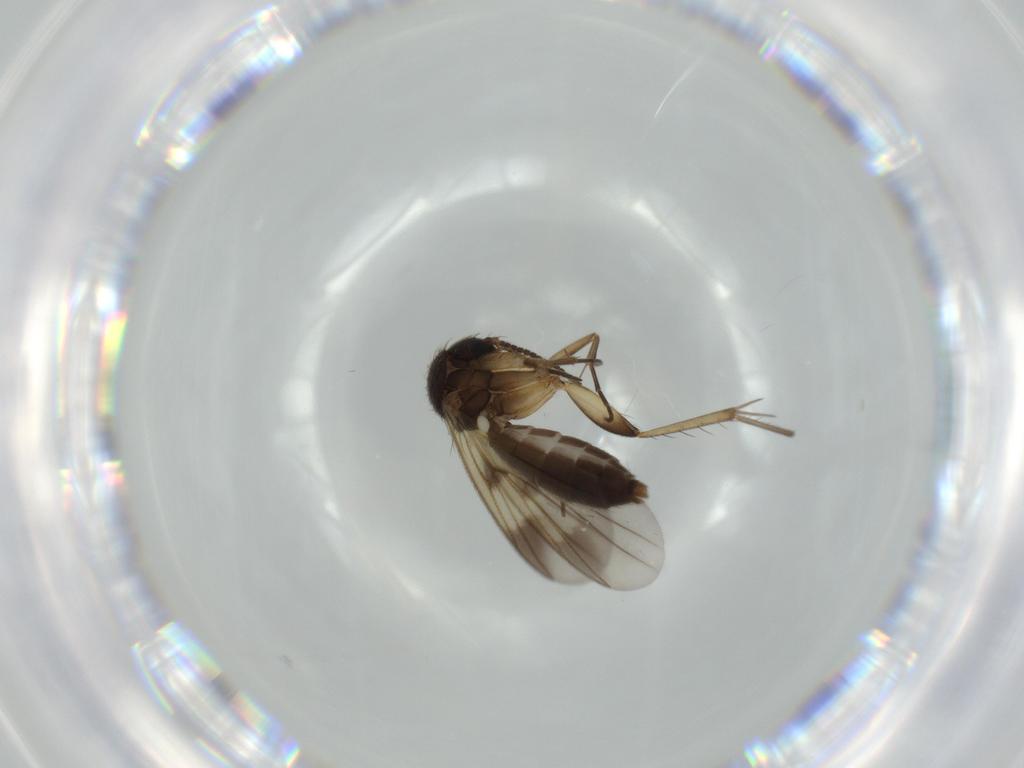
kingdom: Animalia
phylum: Arthropoda
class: Insecta
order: Diptera
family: Mycetophilidae
